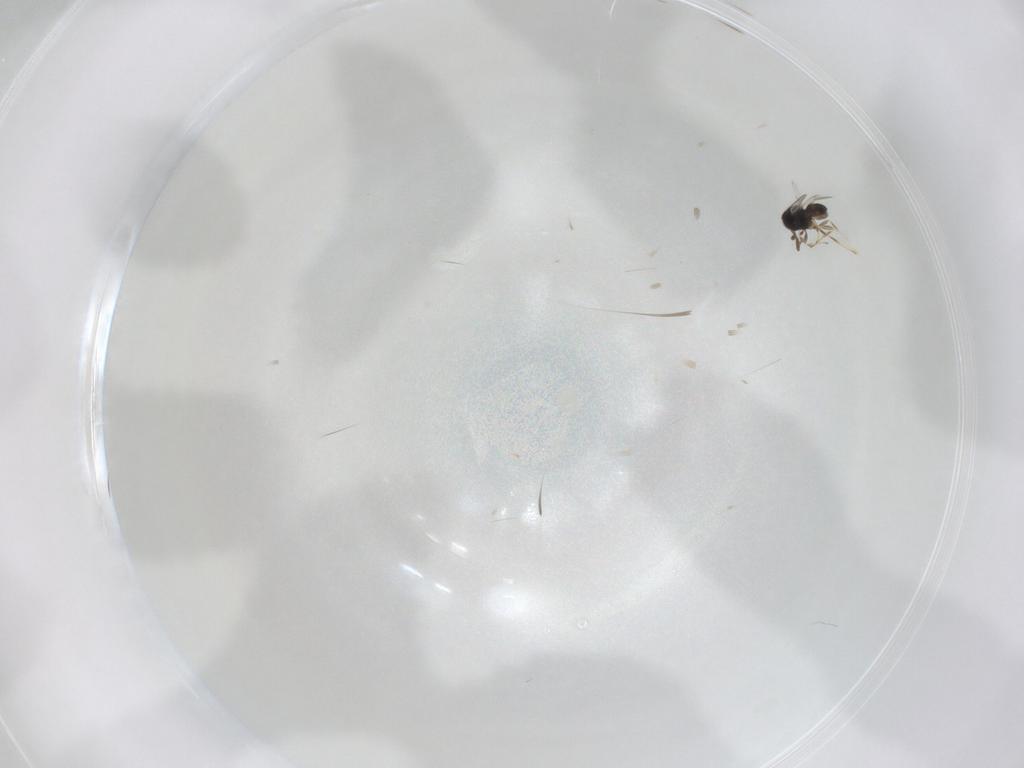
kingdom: Animalia
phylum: Arthropoda
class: Insecta
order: Hymenoptera
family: Scelionidae
